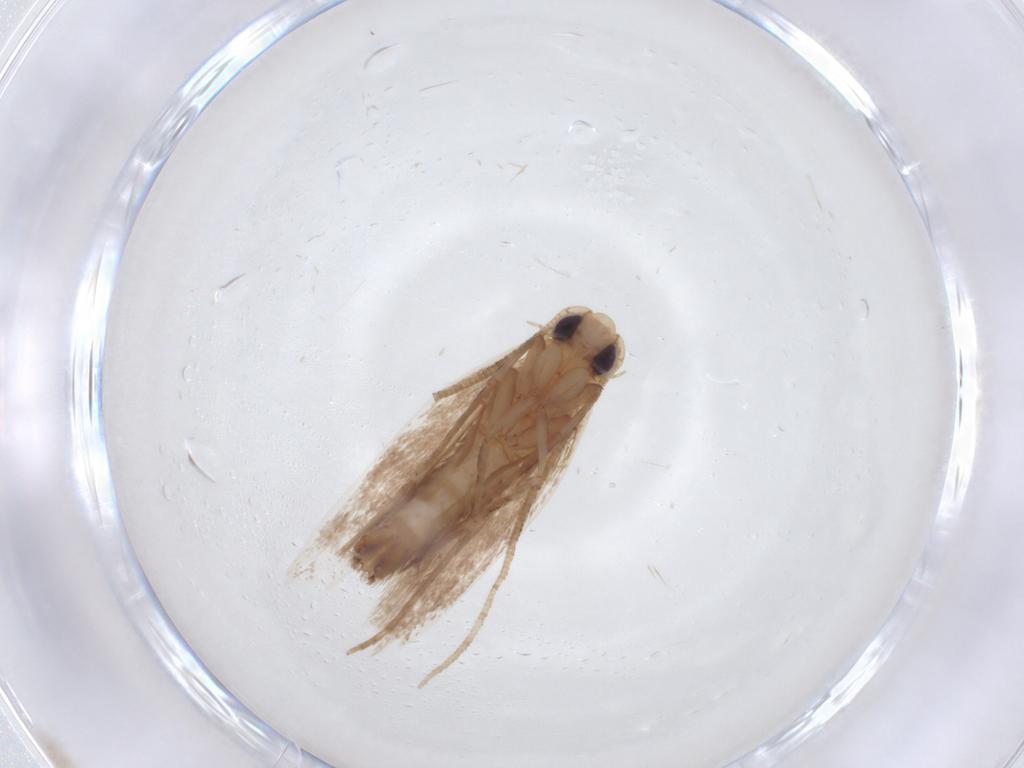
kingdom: Animalia
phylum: Arthropoda
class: Insecta
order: Lepidoptera
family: Tineidae
